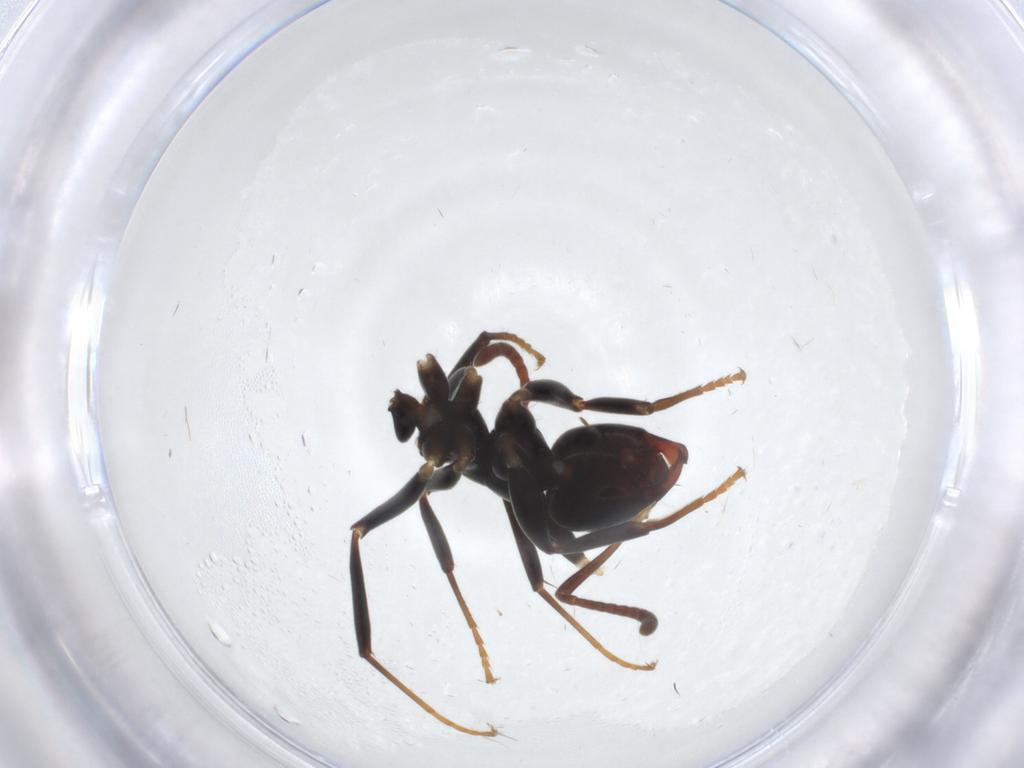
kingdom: Animalia
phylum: Arthropoda
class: Insecta
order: Hymenoptera
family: Formicidae
